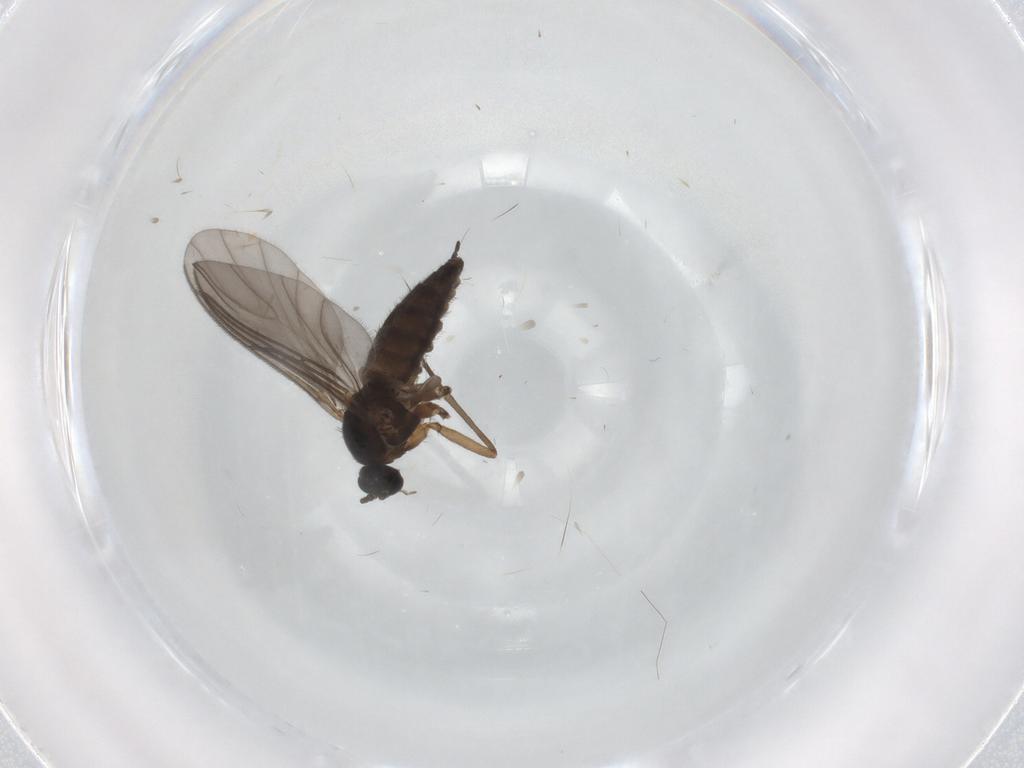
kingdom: Animalia
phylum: Arthropoda
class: Insecta
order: Diptera
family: Sciaridae
